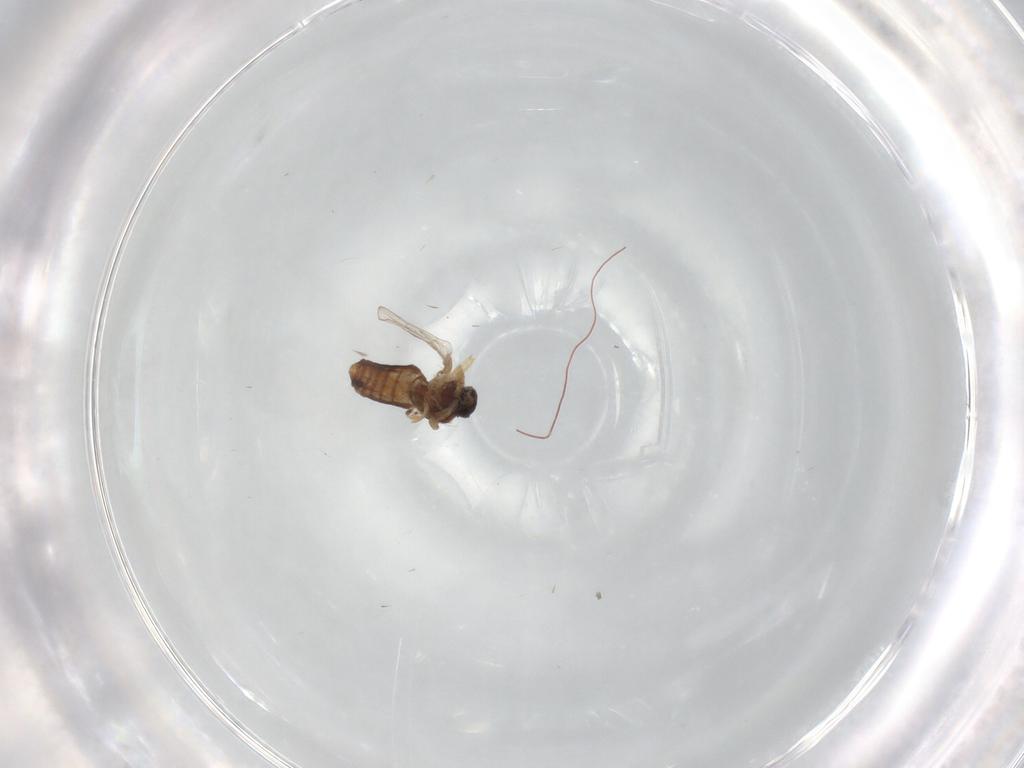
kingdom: Animalia
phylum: Arthropoda
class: Insecta
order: Diptera
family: Ceratopogonidae
